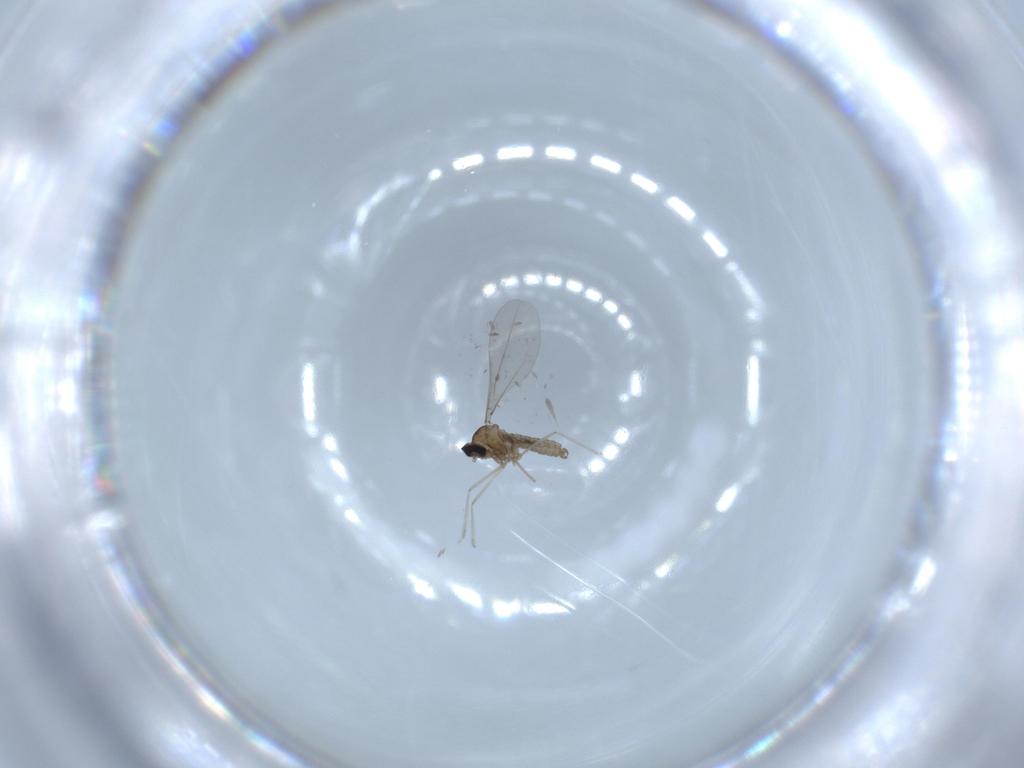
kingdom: Animalia
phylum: Arthropoda
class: Insecta
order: Diptera
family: Cecidomyiidae
